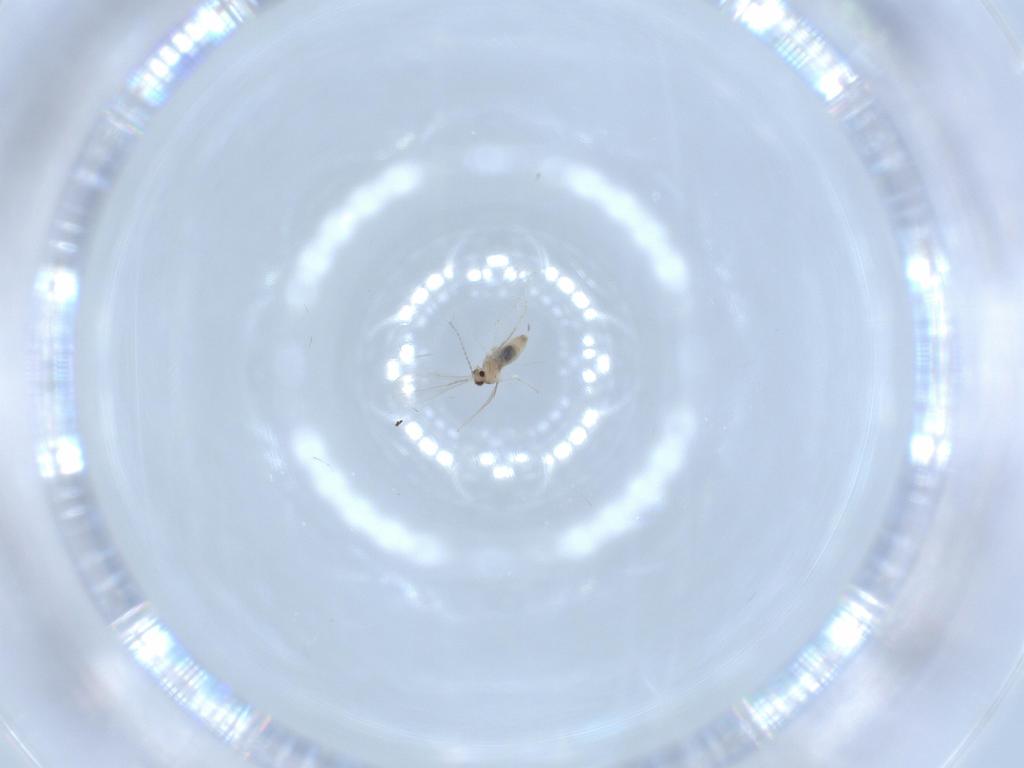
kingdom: Animalia
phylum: Arthropoda
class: Insecta
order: Diptera
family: Cecidomyiidae
